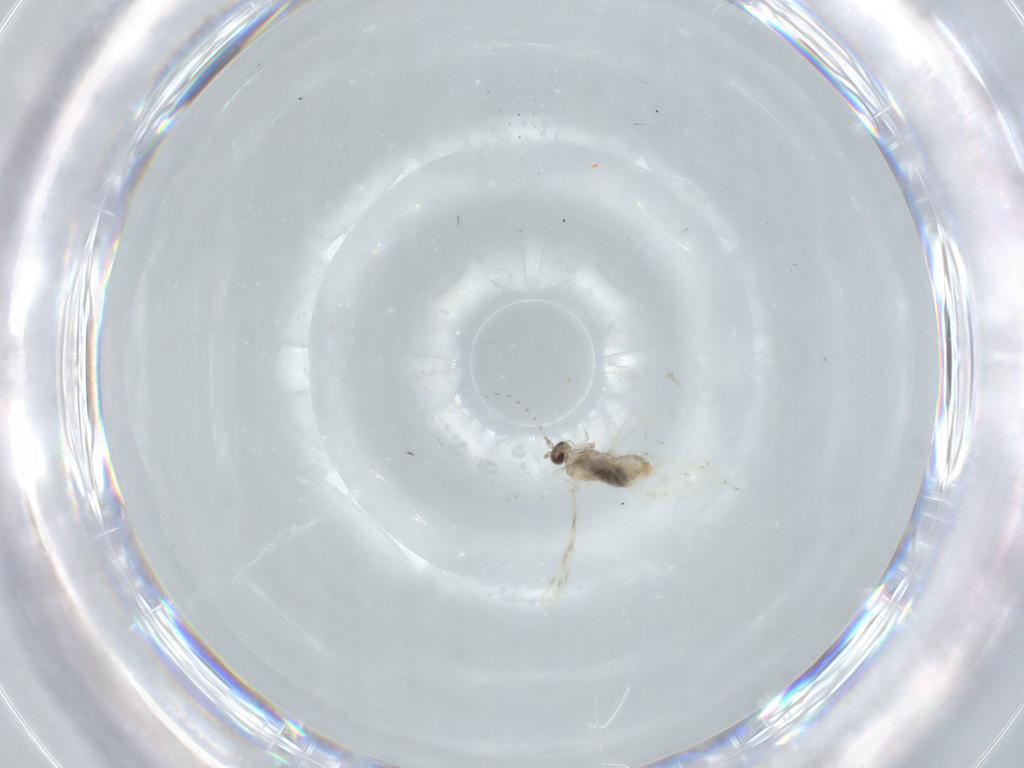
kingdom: Animalia
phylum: Arthropoda
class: Insecta
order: Diptera
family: Cecidomyiidae
